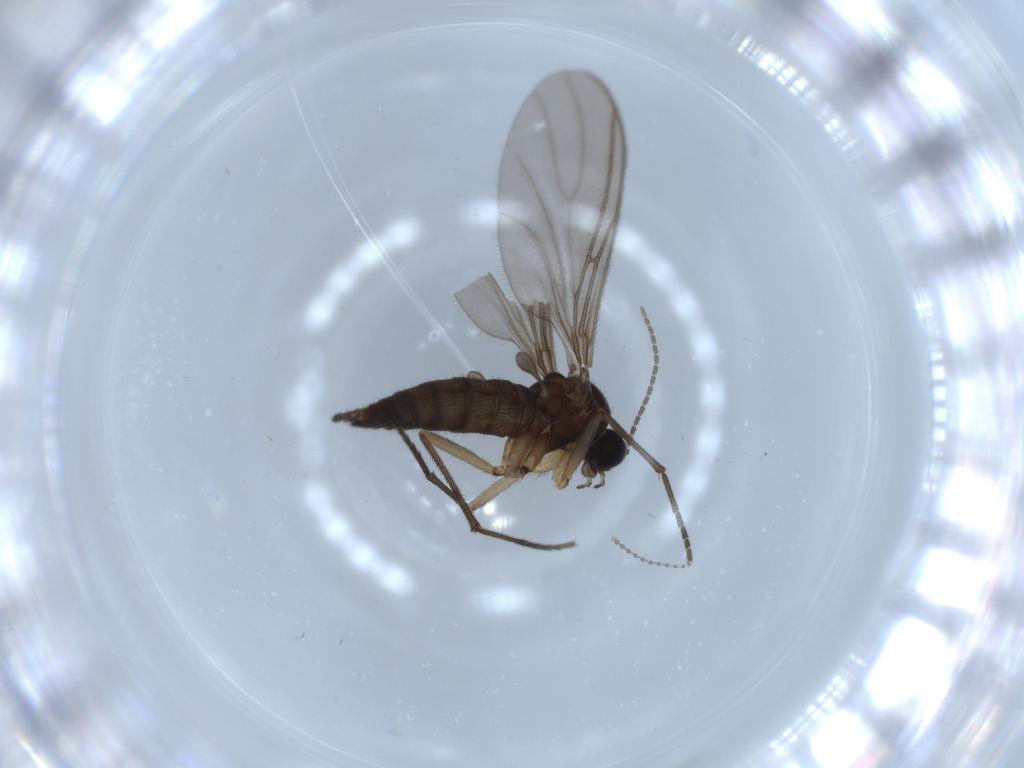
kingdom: Animalia
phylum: Arthropoda
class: Insecta
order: Diptera
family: Dolichopodidae
